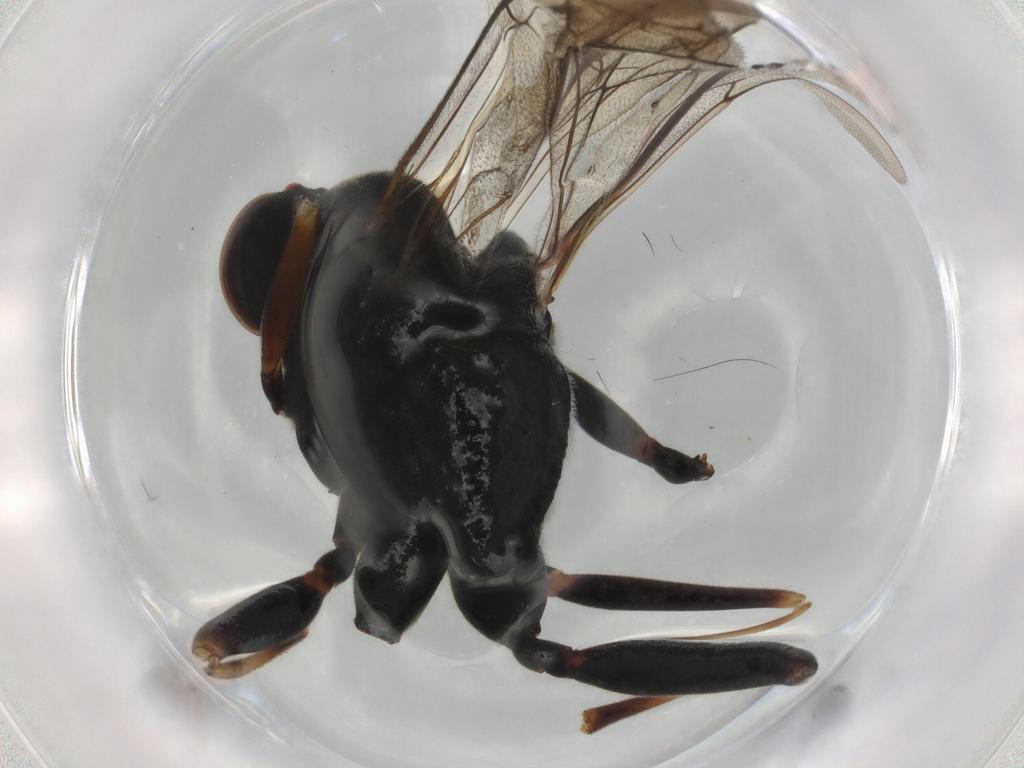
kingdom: Animalia
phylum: Arthropoda
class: Insecta
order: Hymenoptera
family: Ichneumonidae
